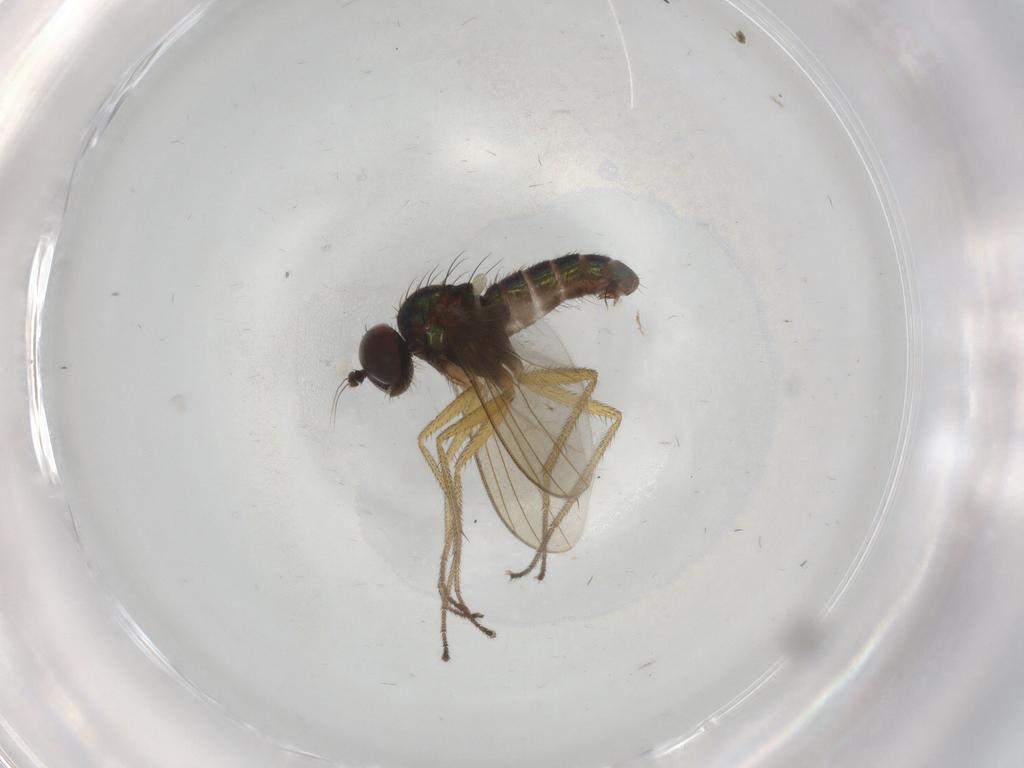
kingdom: Animalia
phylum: Arthropoda
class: Insecta
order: Diptera
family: Dolichopodidae
